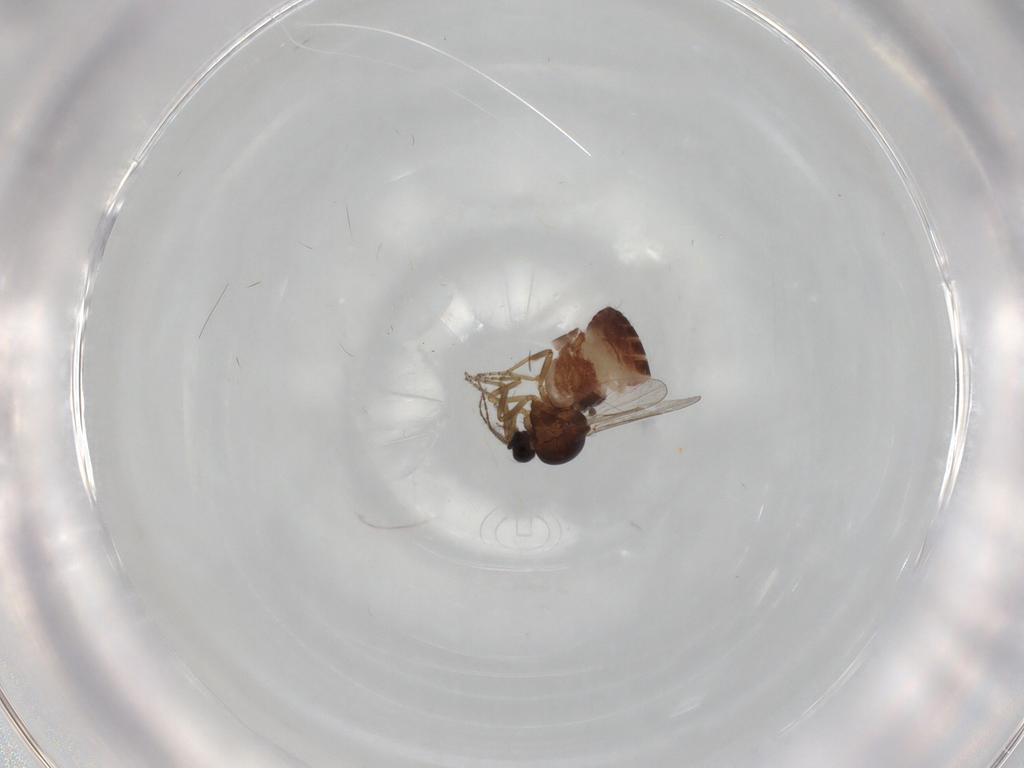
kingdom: Animalia
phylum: Arthropoda
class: Insecta
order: Diptera
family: Ceratopogonidae
